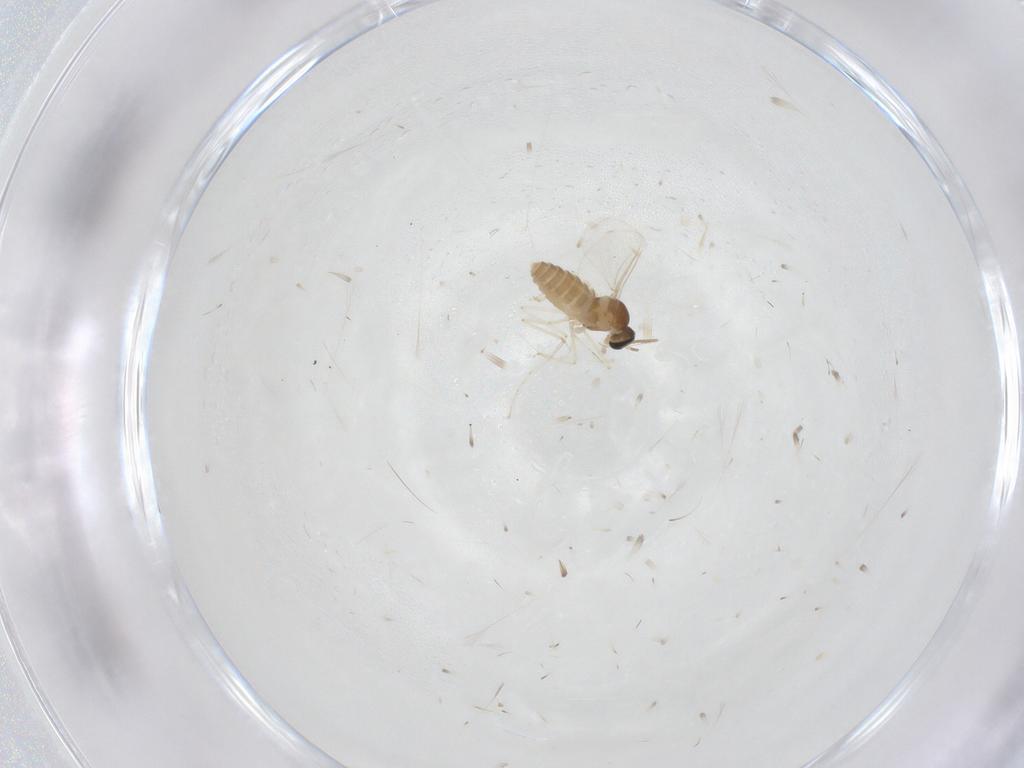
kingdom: Animalia
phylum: Arthropoda
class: Insecta
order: Diptera
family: Cecidomyiidae
